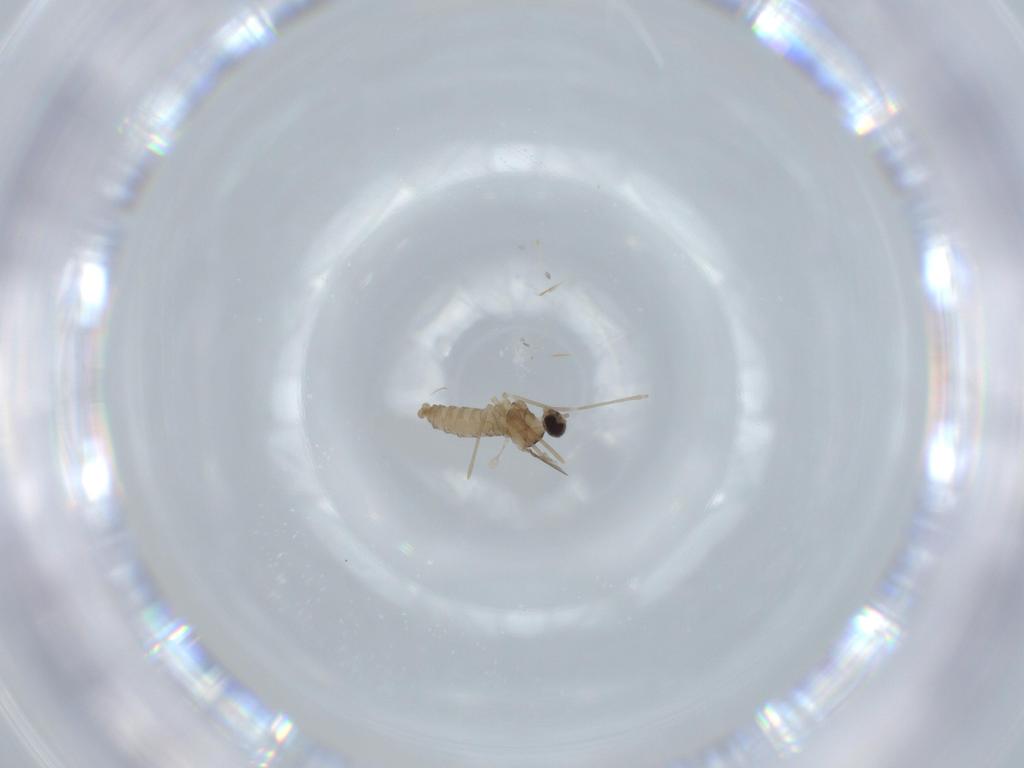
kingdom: Animalia
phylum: Arthropoda
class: Insecta
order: Diptera
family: Cecidomyiidae
